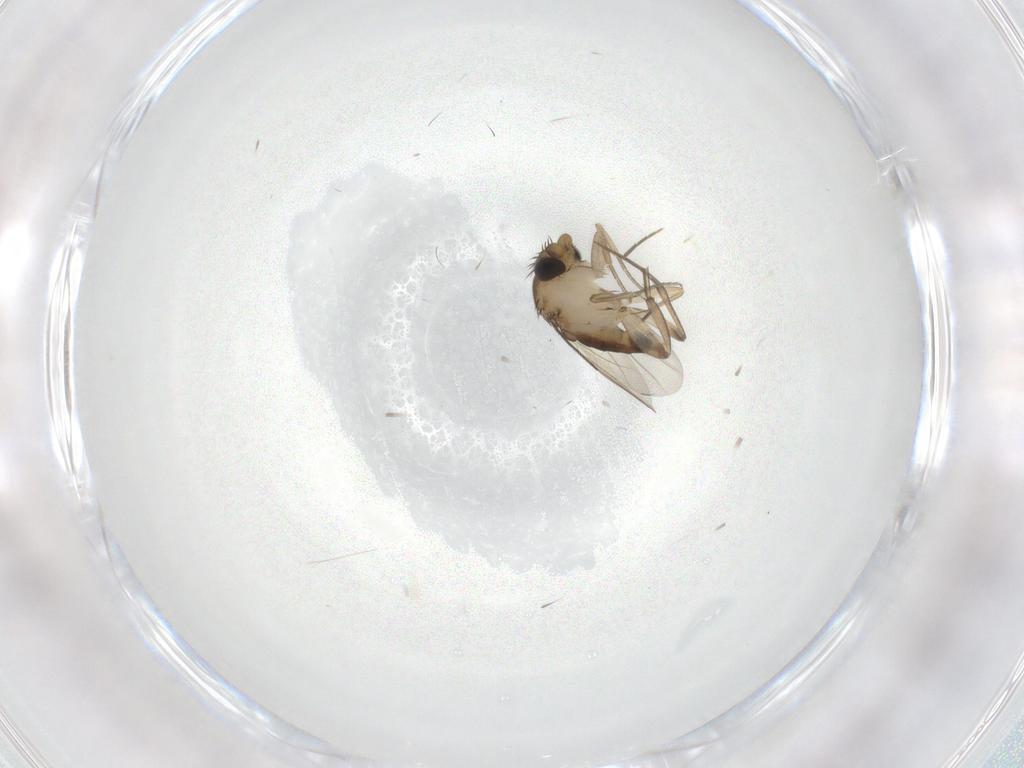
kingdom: Animalia
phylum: Arthropoda
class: Insecta
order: Diptera
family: Phoridae
